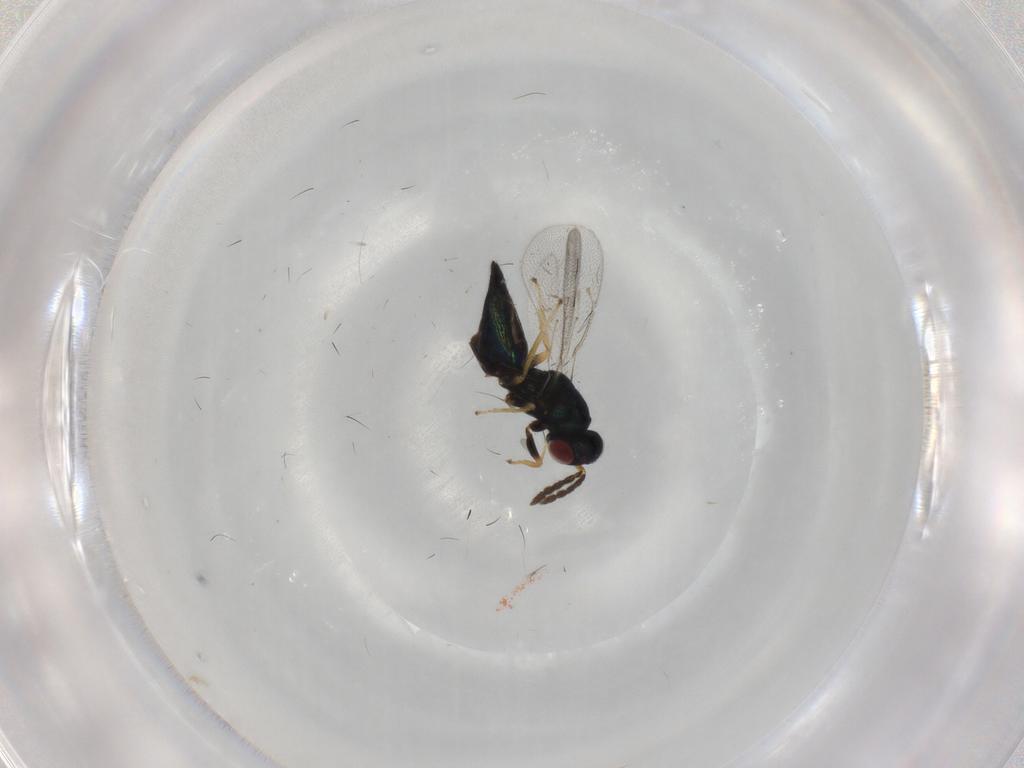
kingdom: Animalia
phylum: Arthropoda
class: Insecta
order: Hymenoptera
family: Eulophidae
